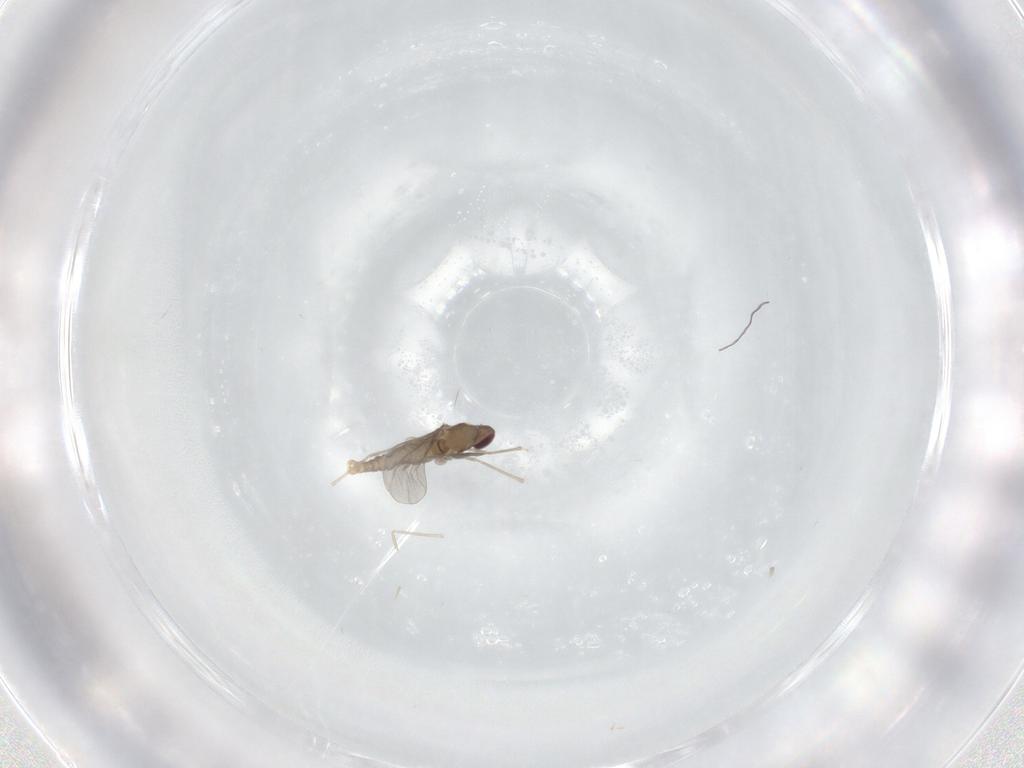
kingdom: Animalia
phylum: Arthropoda
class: Insecta
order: Diptera
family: Cecidomyiidae
